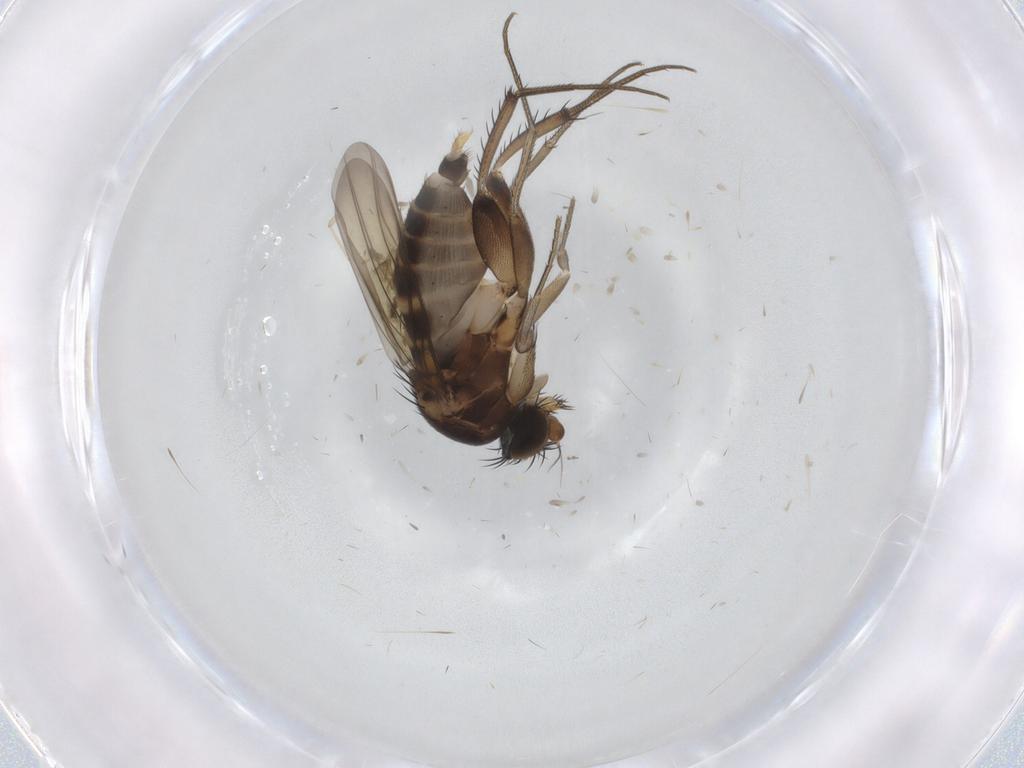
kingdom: Animalia
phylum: Arthropoda
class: Insecta
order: Diptera
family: Phoridae
